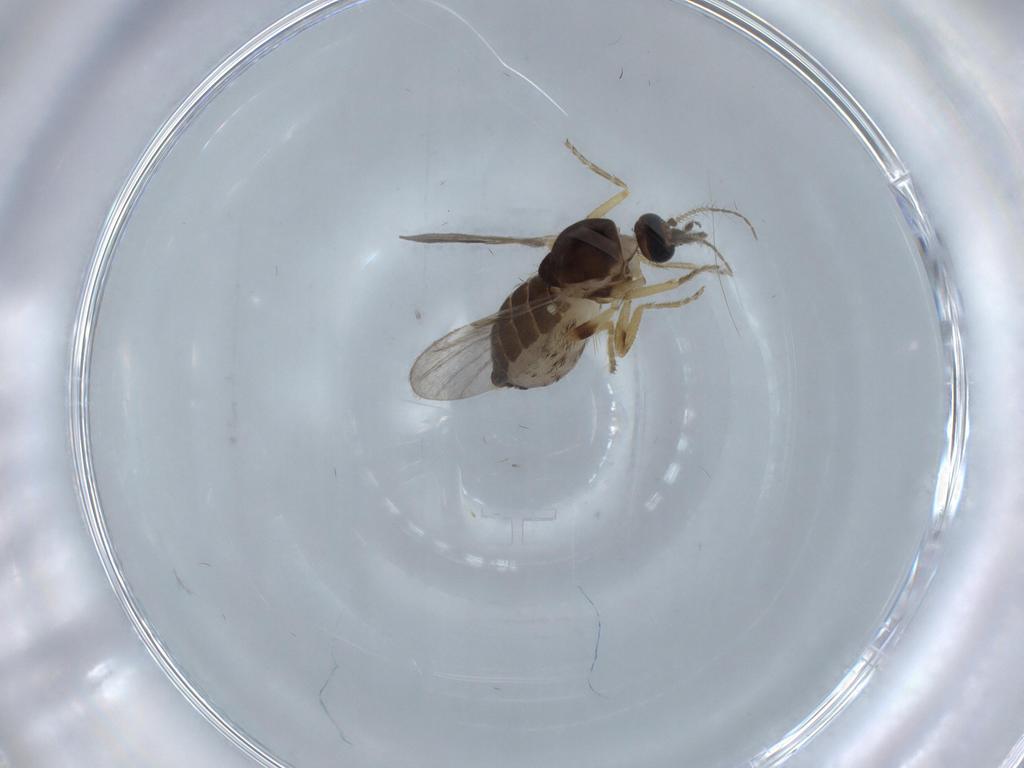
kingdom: Animalia
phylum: Arthropoda
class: Insecta
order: Diptera
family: Ceratopogonidae
